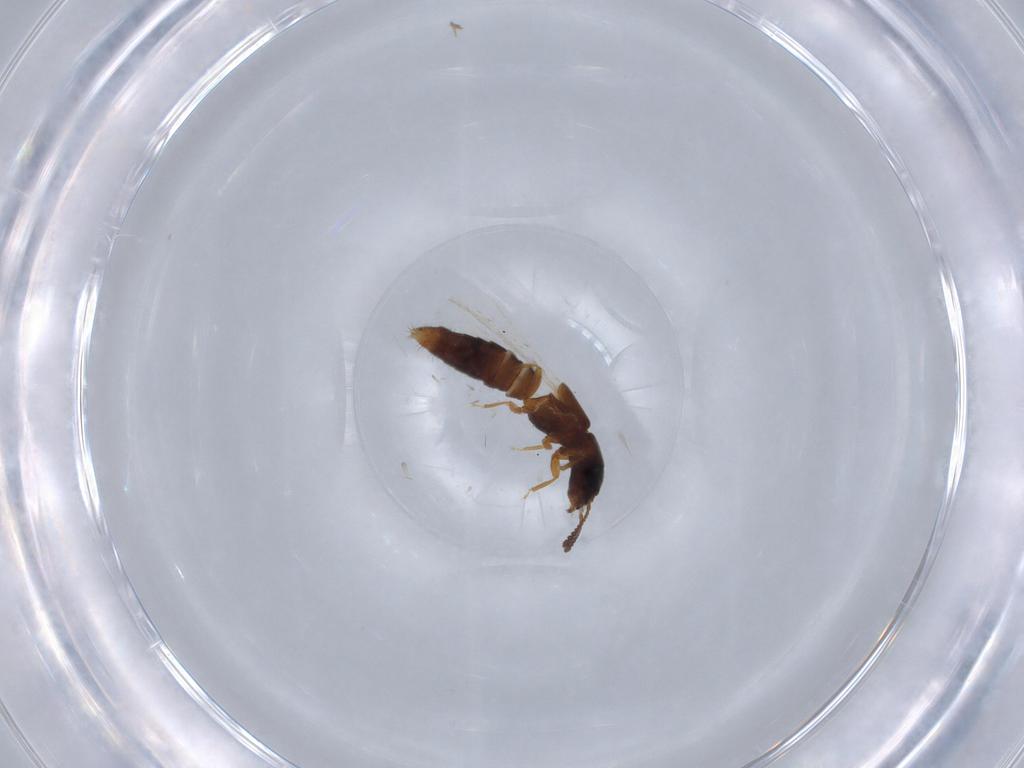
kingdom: Animalia
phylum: Arthropoda
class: Insecta
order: Coleoptera
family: Staphylinidae
